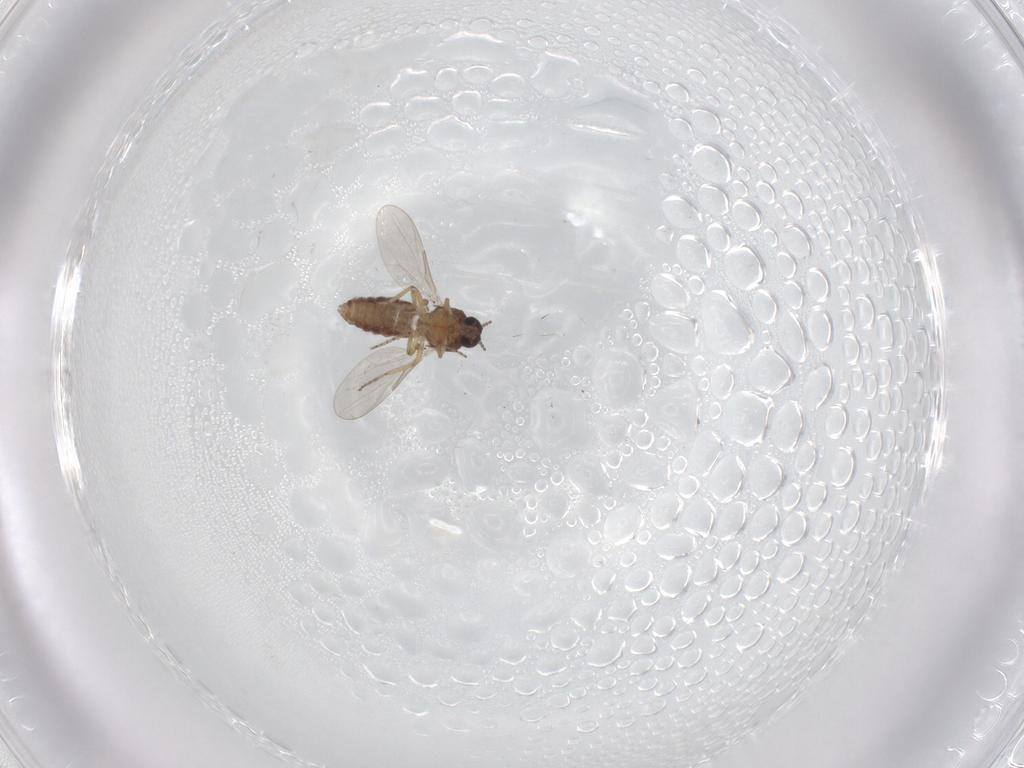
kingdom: Animalia
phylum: Arthropoda
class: Insecta
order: Diptera
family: Ceratopogonidae
